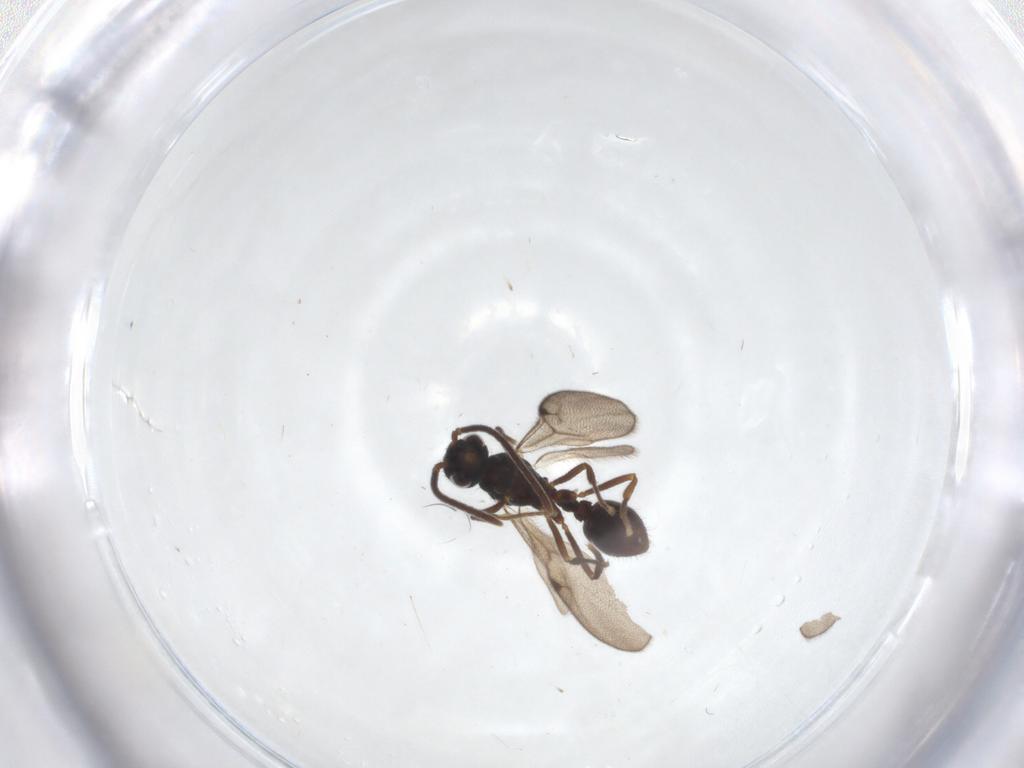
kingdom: Animalia
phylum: Arthropoda
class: Insecta
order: Hymenoptera
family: Formicidae
